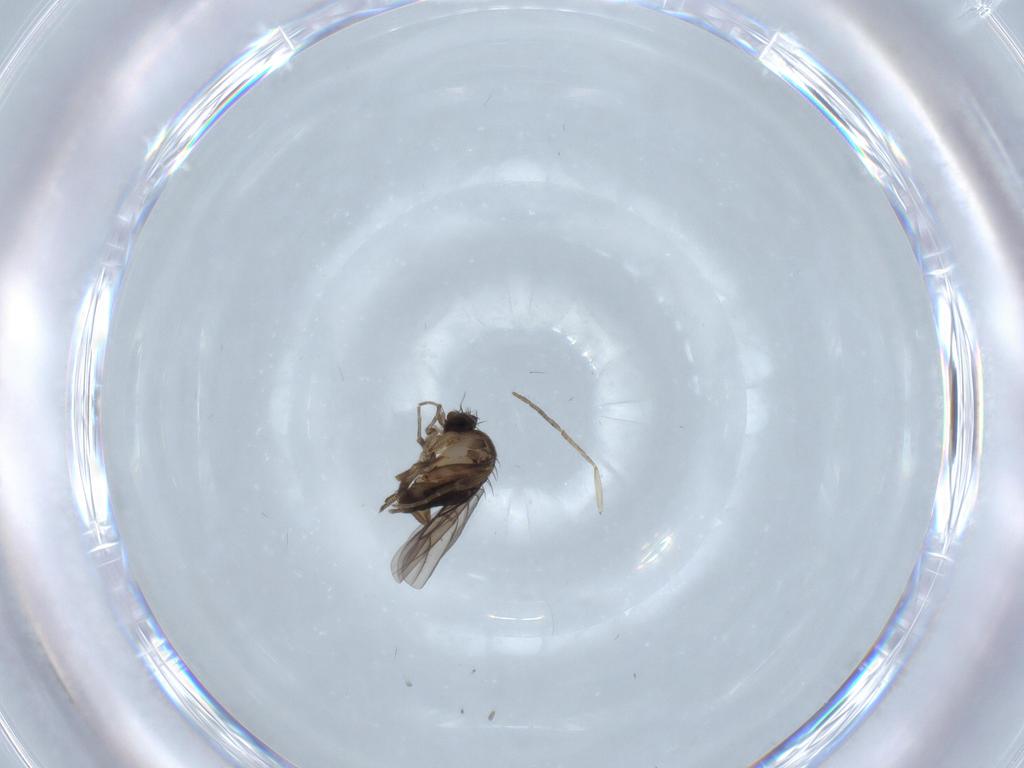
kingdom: Animalia
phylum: Arthropoda
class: Insecta
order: Diptera
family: Phoridae
